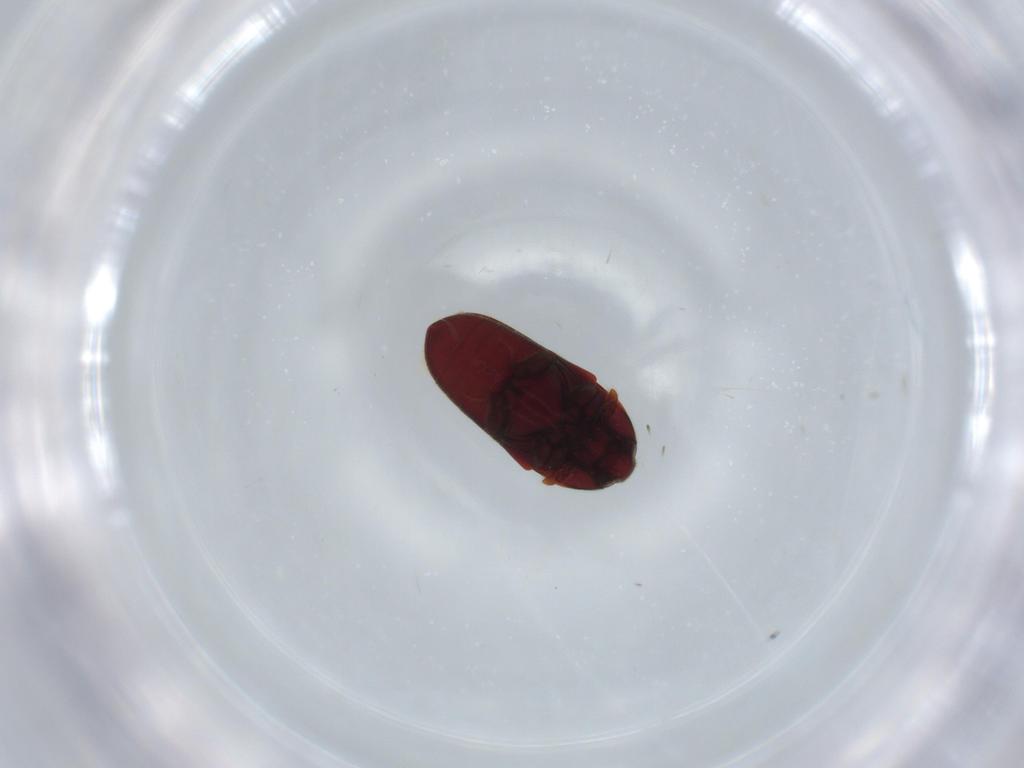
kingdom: Animalia
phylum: Arthropoda
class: Insecta
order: Coleoptera
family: Throscidae
